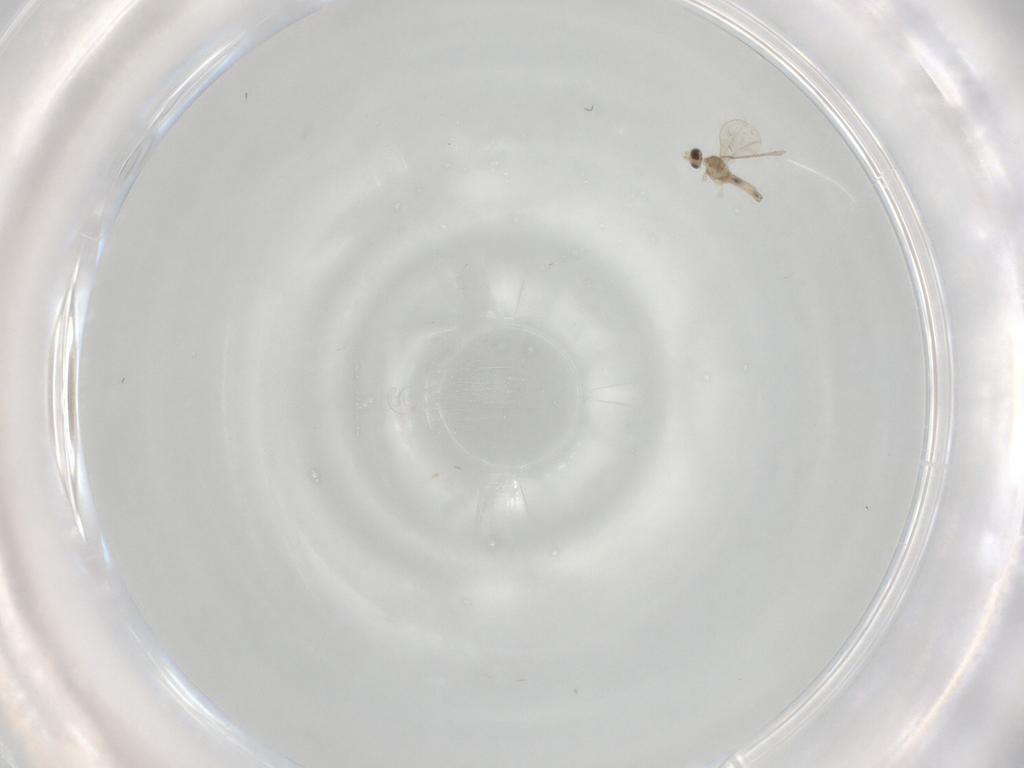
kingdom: Animalia
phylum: Arthropoda
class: Insecta
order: Diptera
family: Cecidomyiidae
